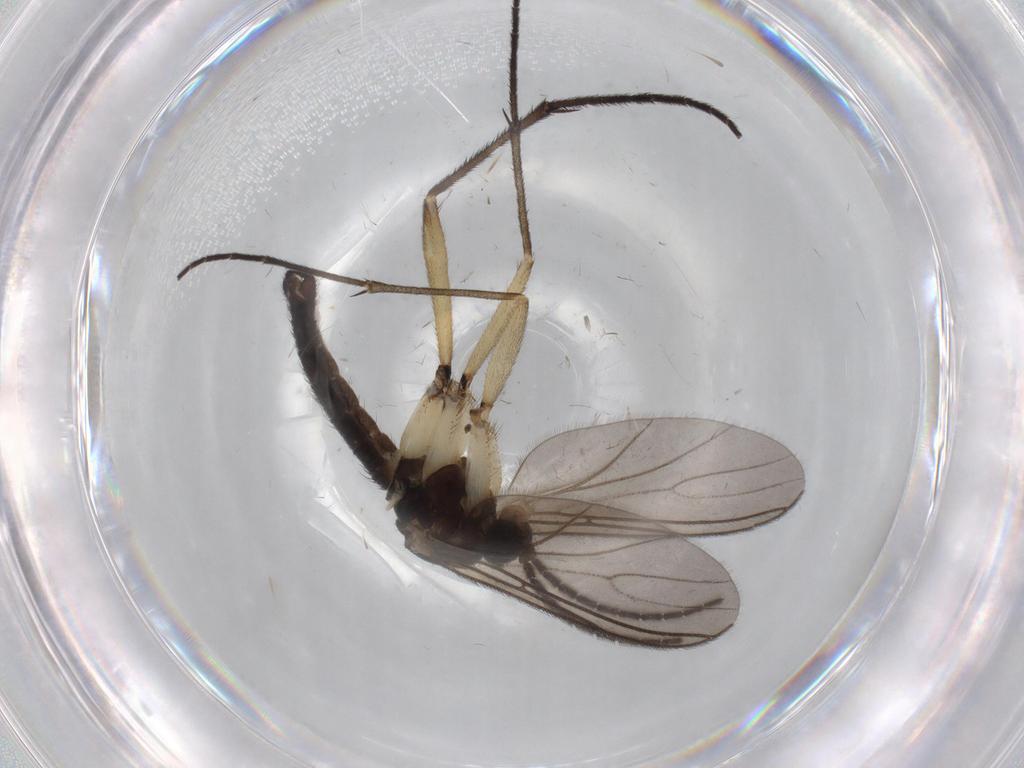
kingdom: Animalia
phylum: Arthropoda
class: Insecta
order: Diptera
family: Sciaridae
